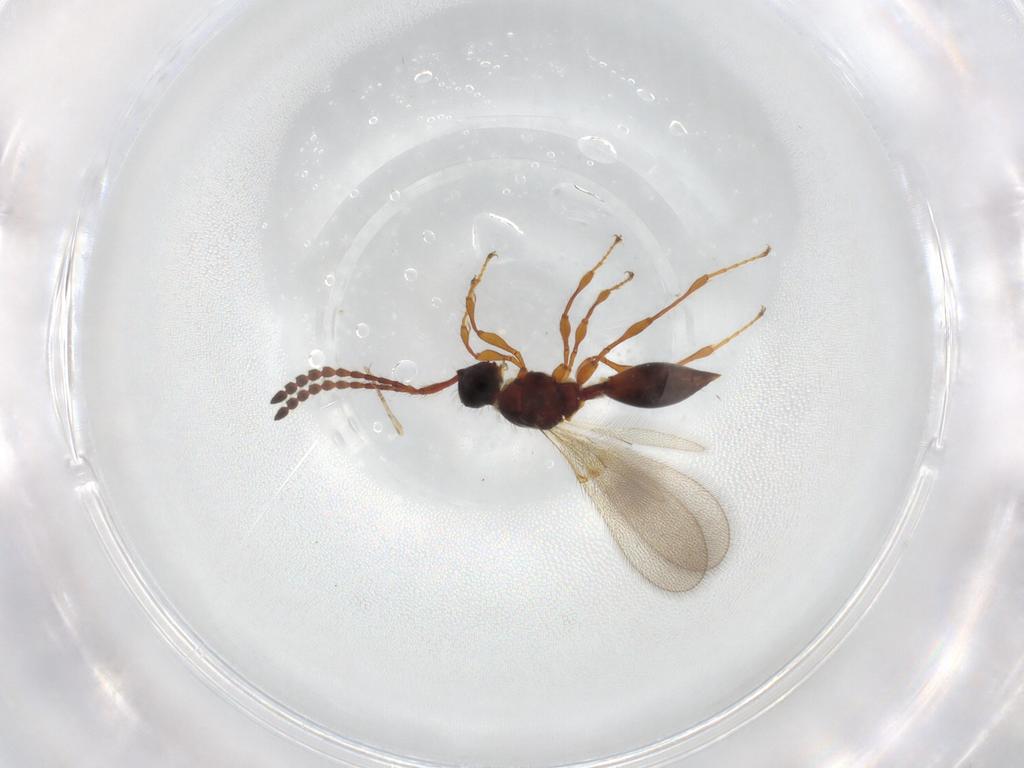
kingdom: Animalia
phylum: Arthropoda
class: Insecta
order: Hymenoptera
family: Diapriidae
